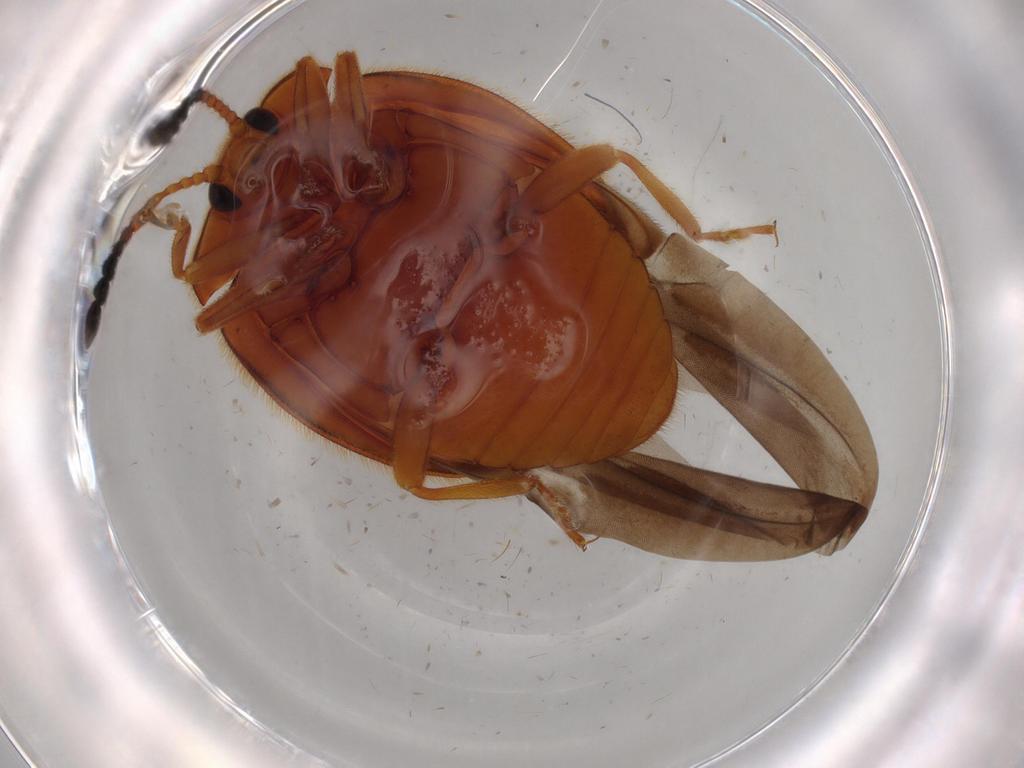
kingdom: Animalia
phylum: Arthropoda
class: Insecta
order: Coleoptera
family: Endomychidae
